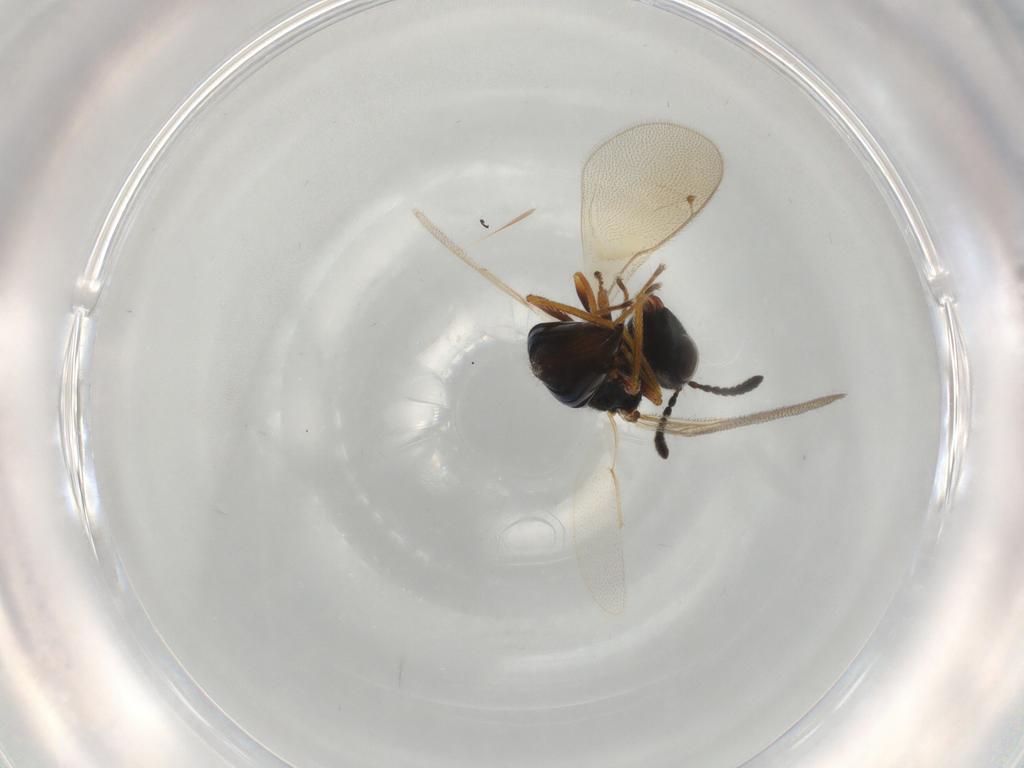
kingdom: Animalia
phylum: Arthropoda
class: Insecta
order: Hymenoptera
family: Pteromalidae
